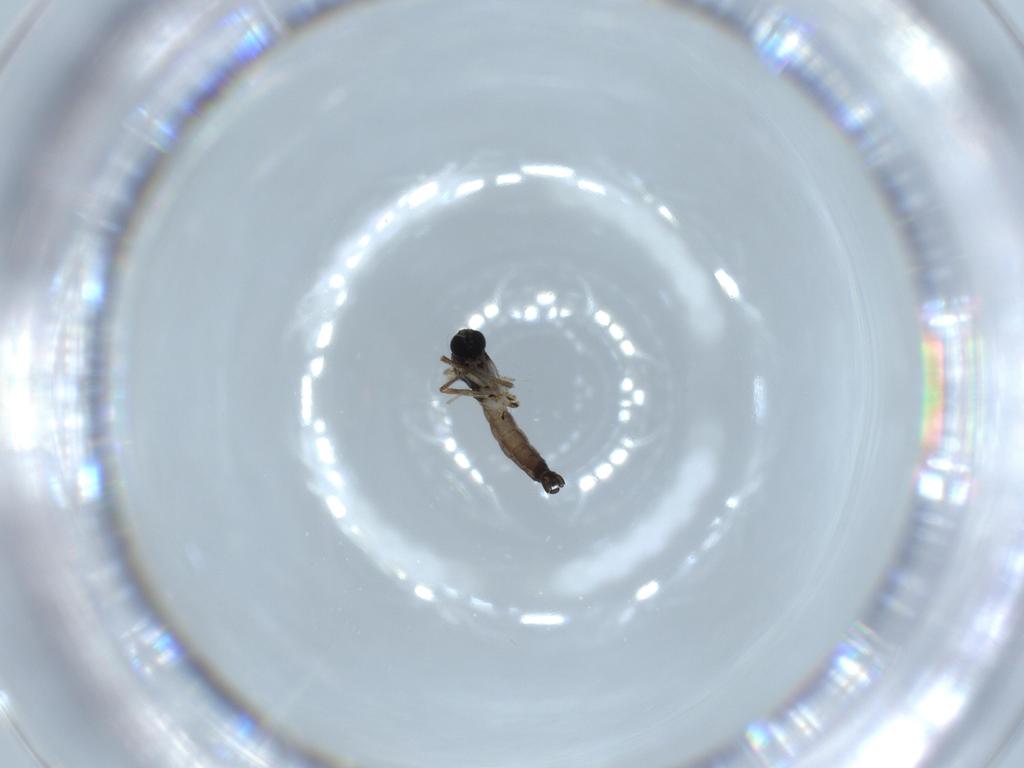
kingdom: Animalia
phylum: Arthropoda
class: Insecta
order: Diptera
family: Sciaridae
